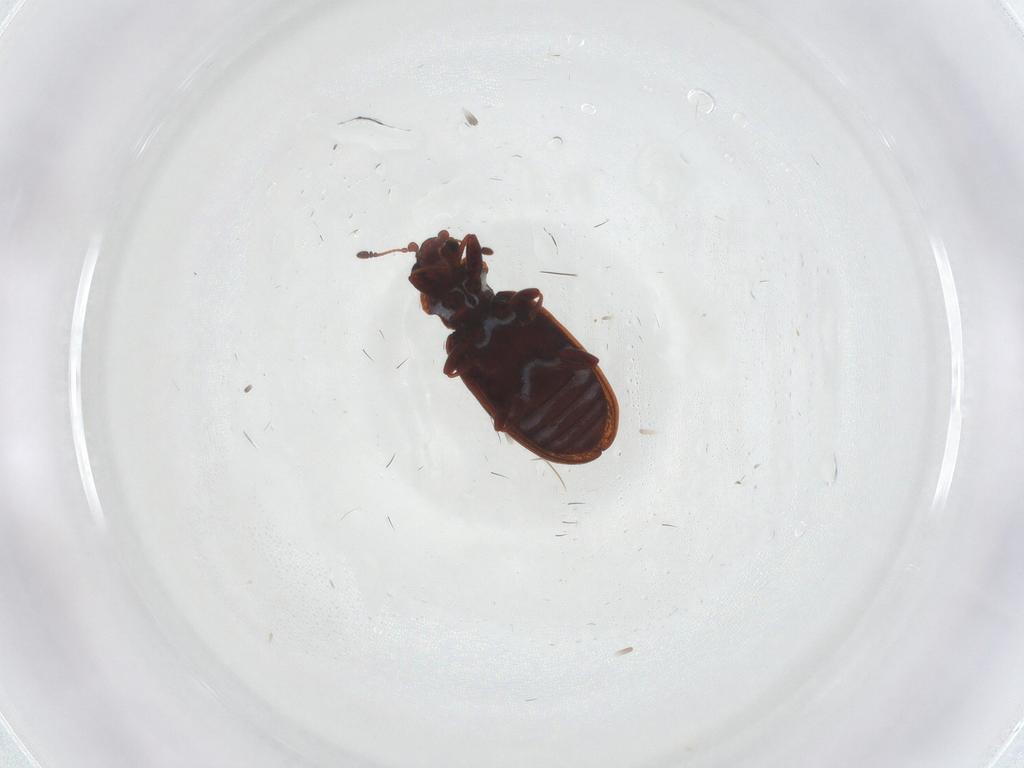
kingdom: Animalia
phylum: Arthropoda
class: Insecta
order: Coleoptera
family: Latridiidae
